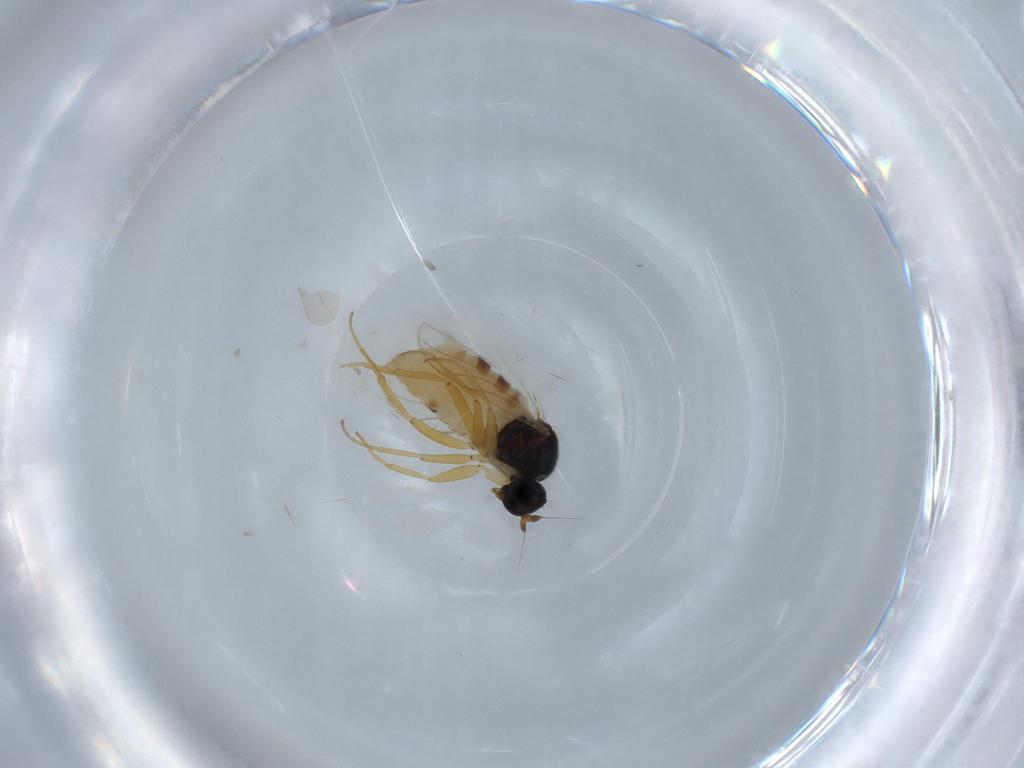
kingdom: Animalia
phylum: Arthropoda
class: Insecta
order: Diptera
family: Hybotidae
